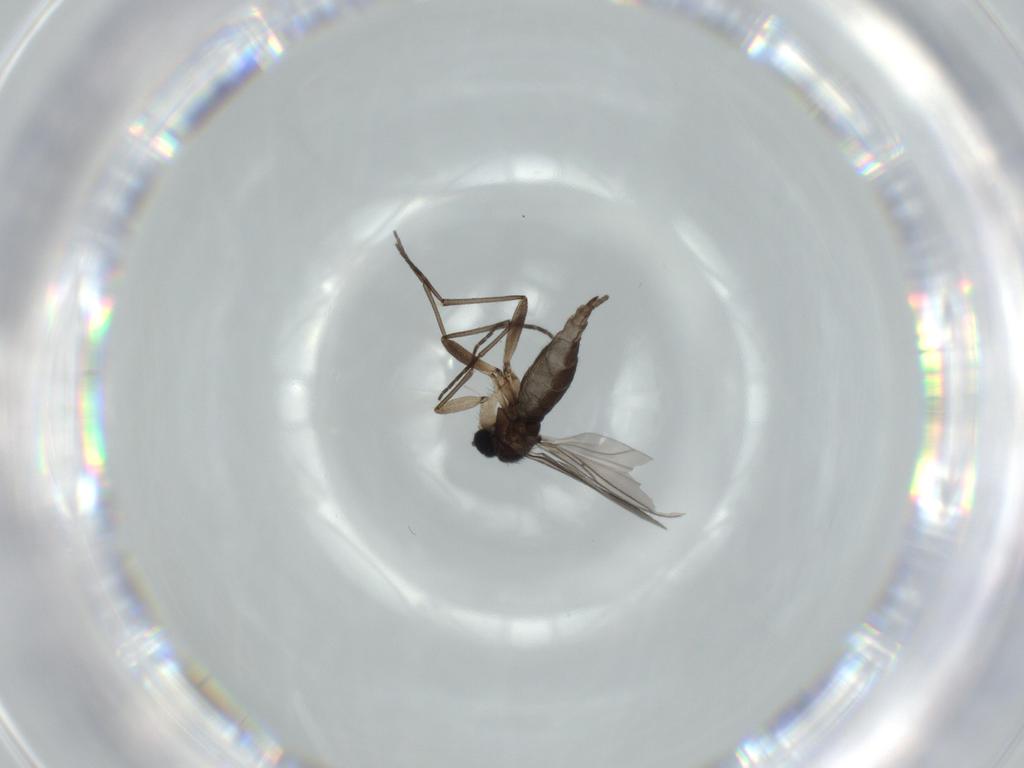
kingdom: Animalia
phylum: Arthropoda
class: Insecta
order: Diptera
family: Sciaridae
